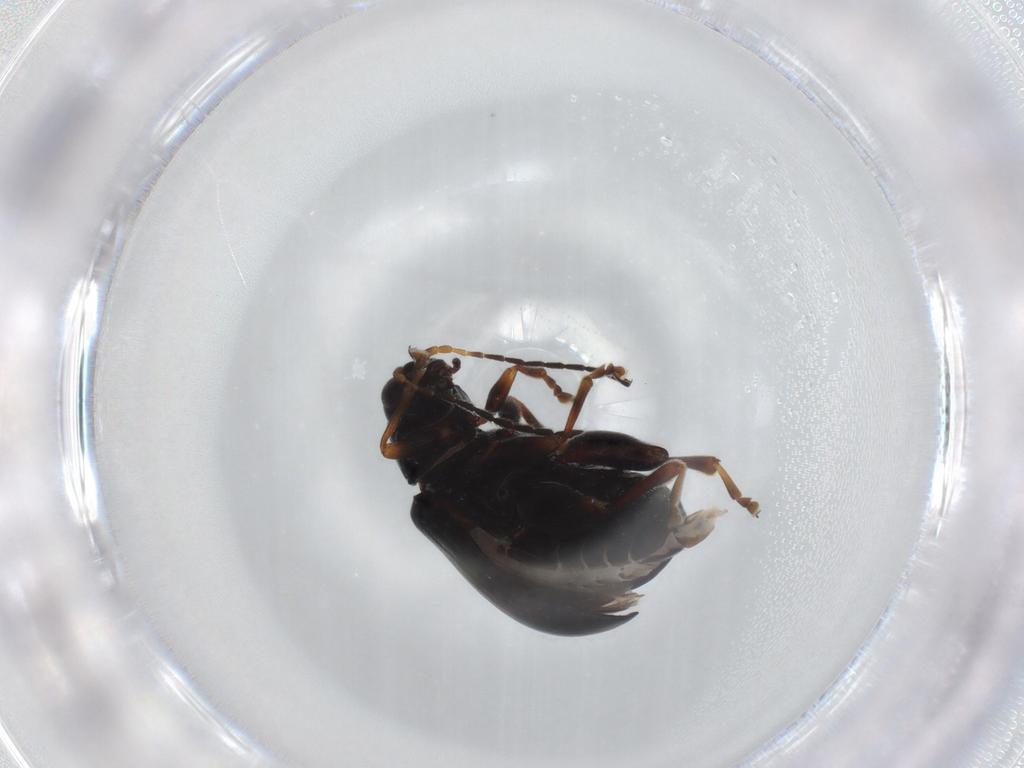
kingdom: Animalia
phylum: Arthropoda
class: Insecta
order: Coleoptera
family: Chrysomelidae
